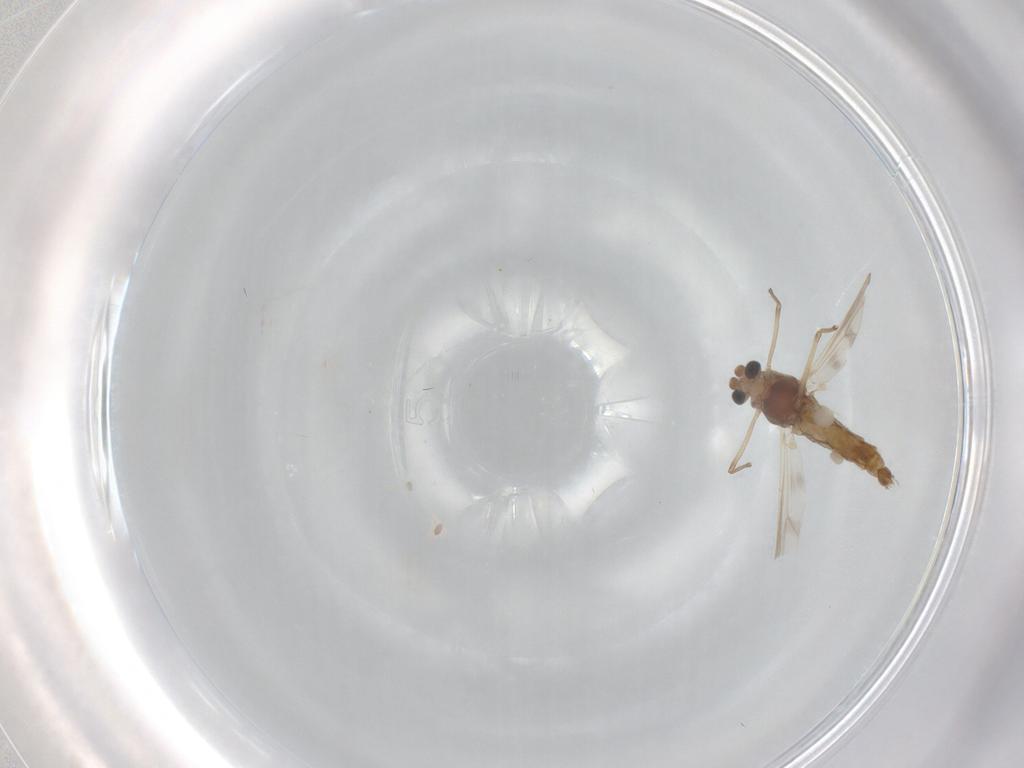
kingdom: Animalia
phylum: Arthropoda
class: Insecta
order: Diptera
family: Chironomidae
